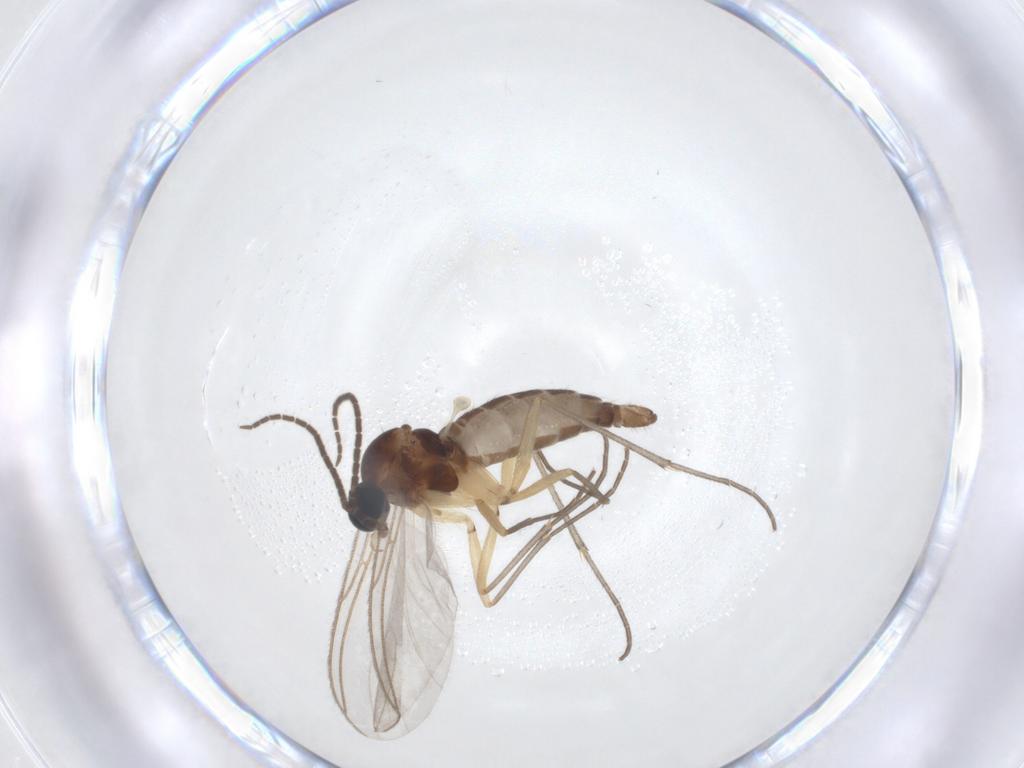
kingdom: Animalia
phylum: Arthropoda
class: Insecta
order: Diptera
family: Sciaridae
